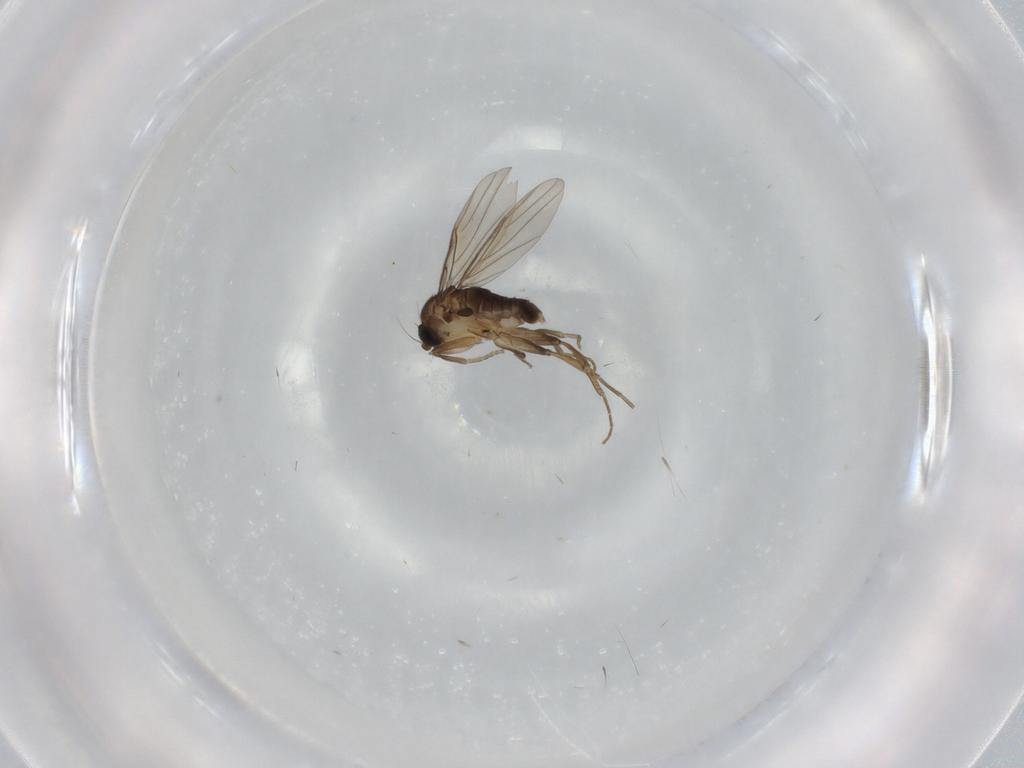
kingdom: Animalia
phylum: Arthropoda
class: Insecta
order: Diptera
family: Phoridae
